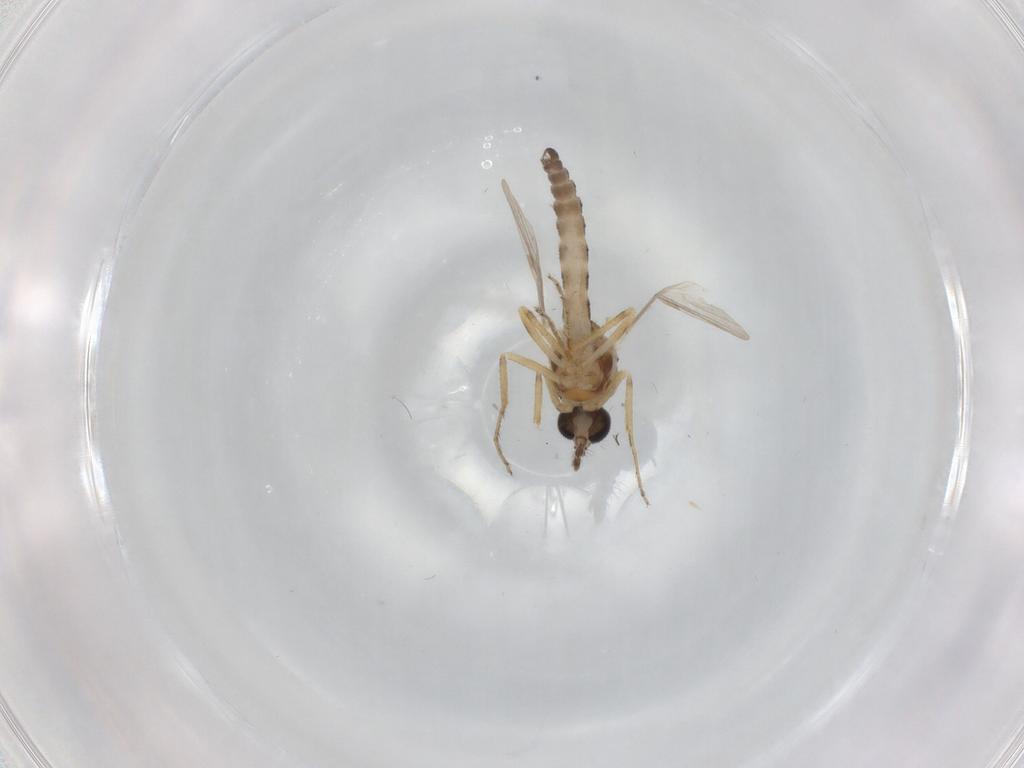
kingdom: Animalia
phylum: Arthropoda
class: Insecta
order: Diptera
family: Ceratopogonidae
